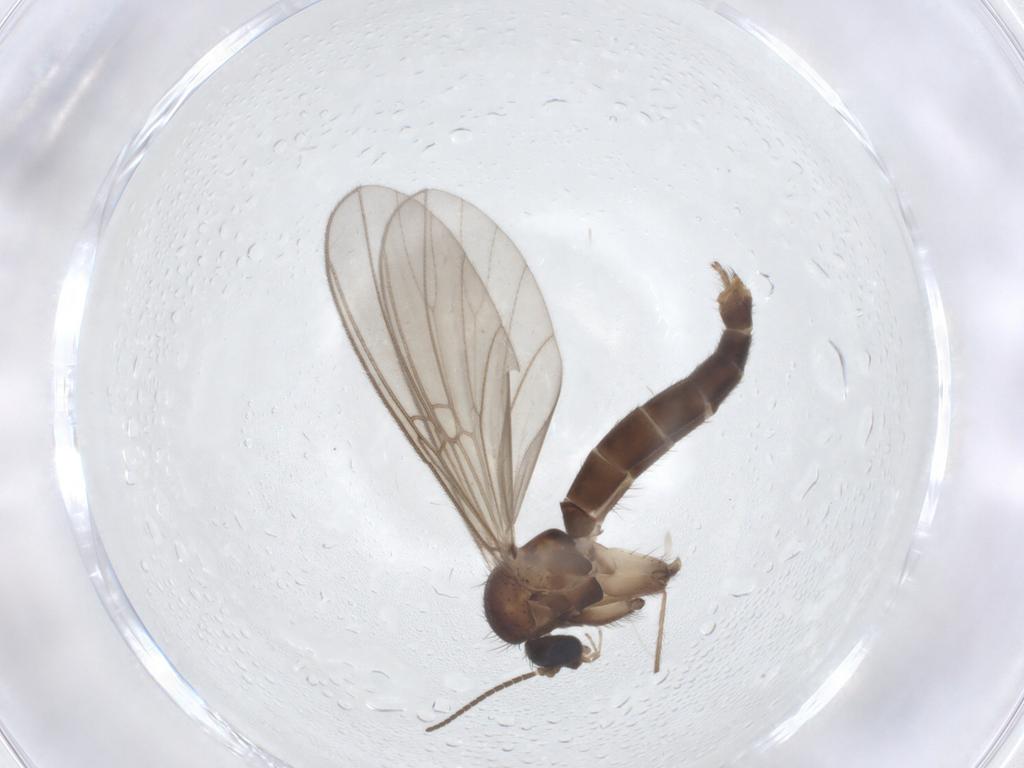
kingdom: Animalia
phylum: Arthropoda
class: Insecta
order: Diptera
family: Mycetophilidae
